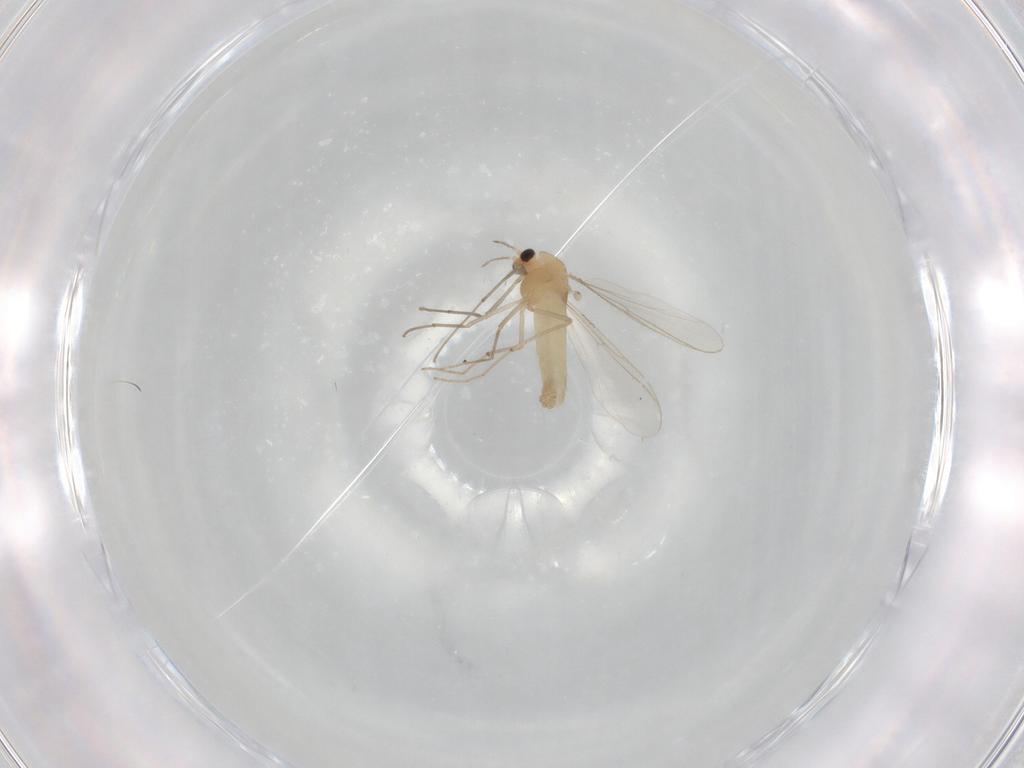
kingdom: Animalia
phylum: Arthropoda
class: Insecta
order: Diptera
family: Chironomidae
